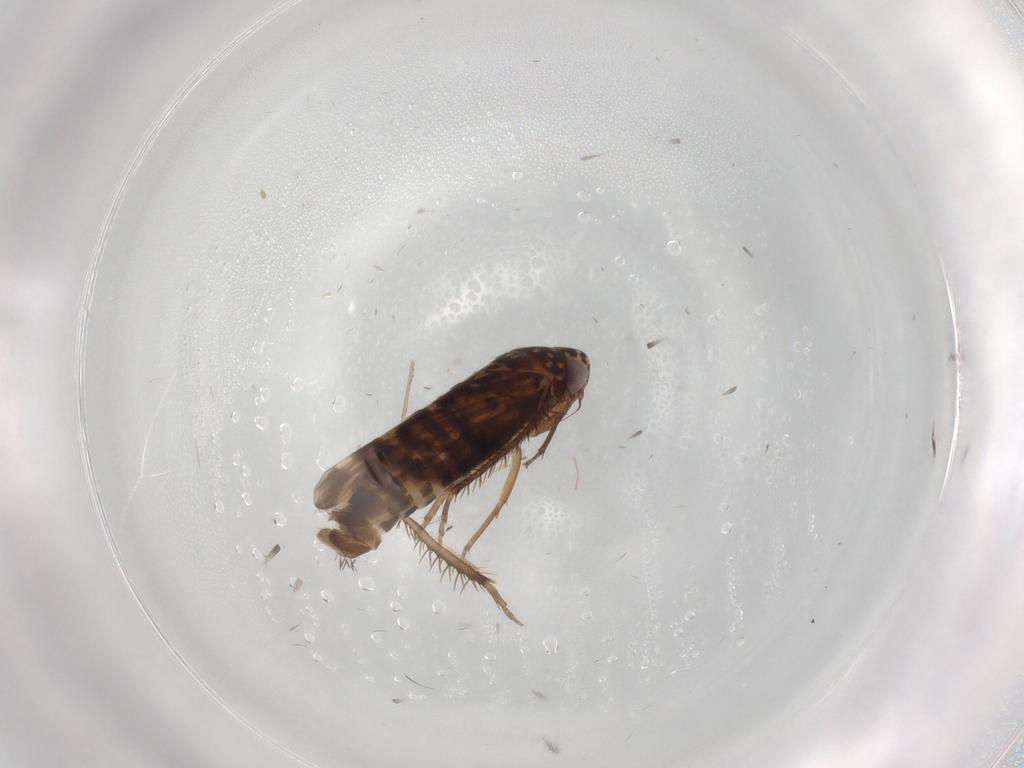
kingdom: Animalia
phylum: Arthropoda
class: Insecta
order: Hemiptera
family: Cicadellidae
